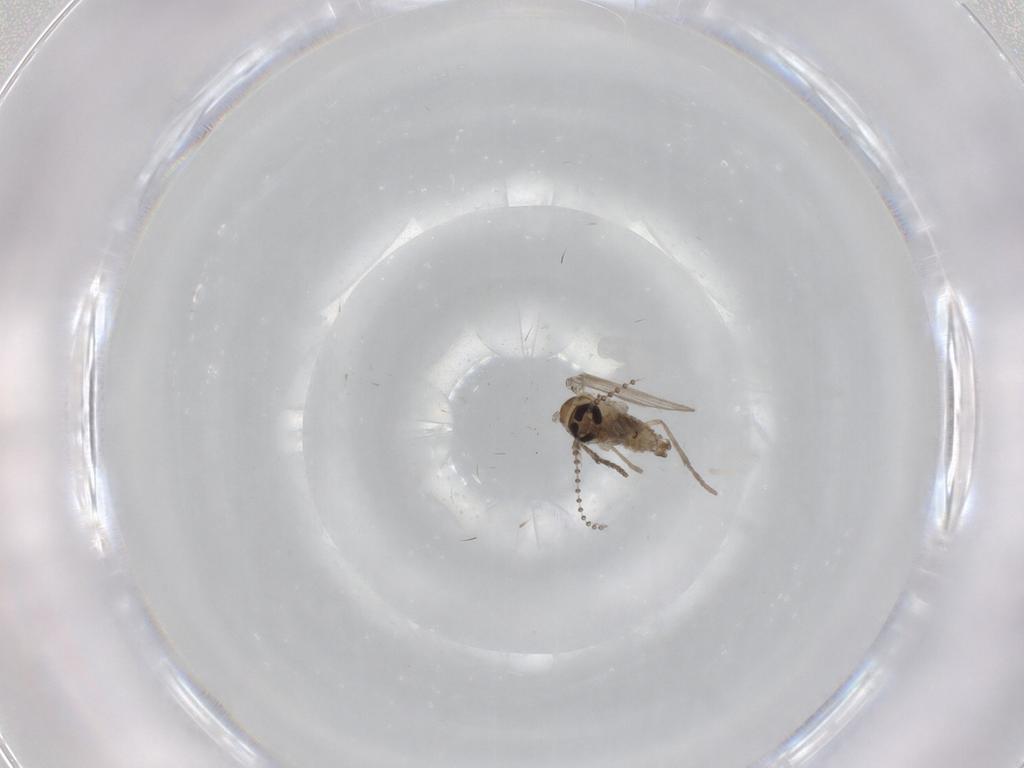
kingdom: Animalia
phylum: Arthropoda
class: Insecta
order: Diptera
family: Psychodidae
